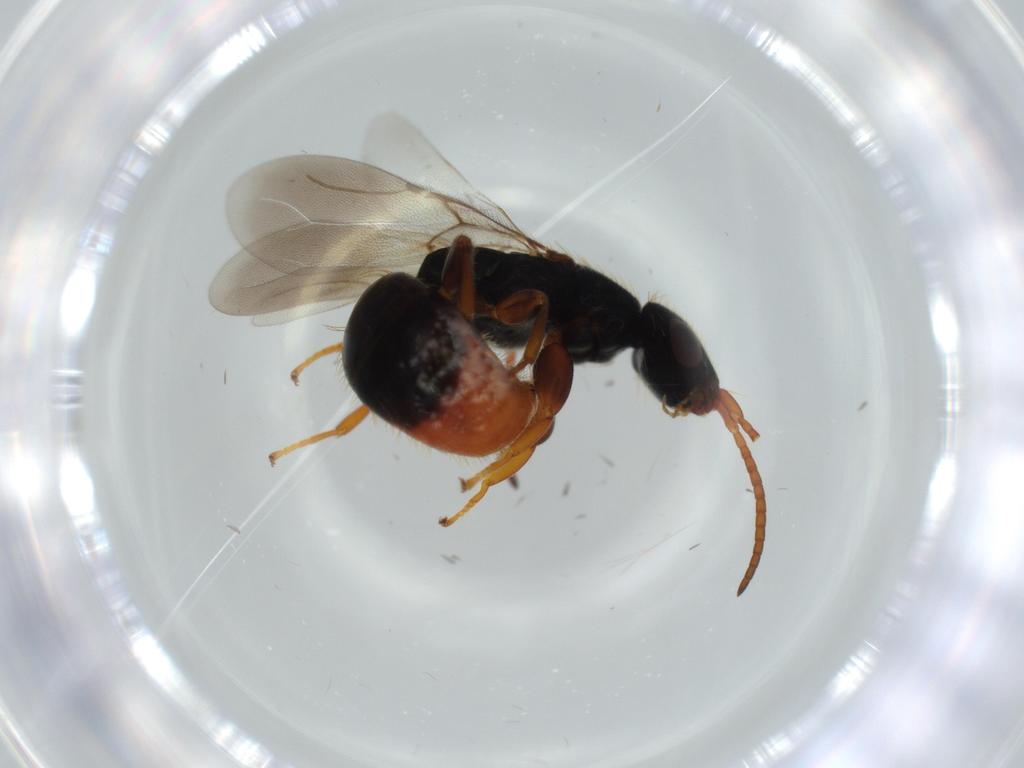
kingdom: Animalia
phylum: Arthropoda
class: Insecta
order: Hymenoptera
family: Bethylidae
